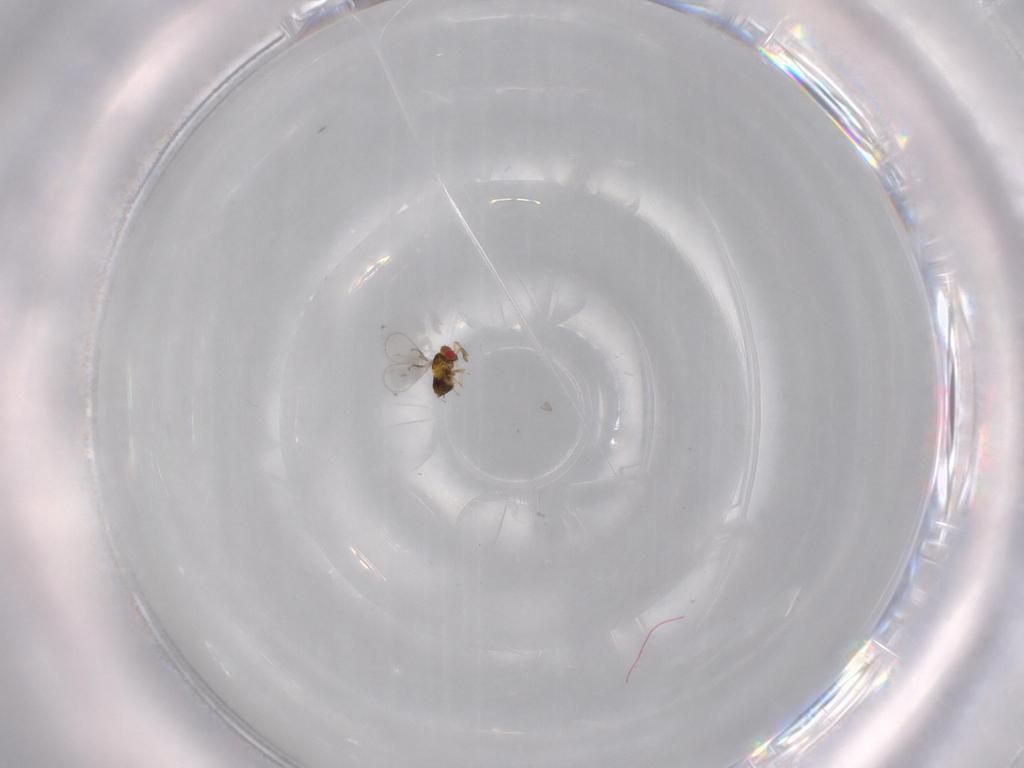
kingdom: Animalia
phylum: Arthropoda
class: Insecta
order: Hymenoptera
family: Trichogrammatidae
